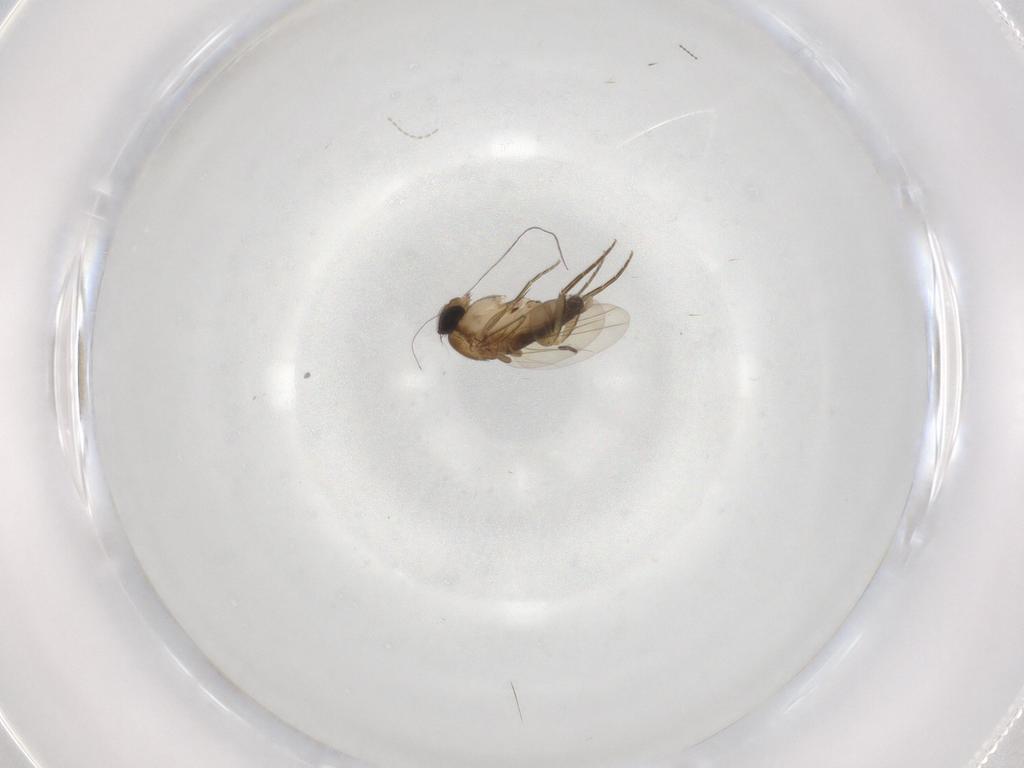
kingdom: Animalia
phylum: Arthropoda
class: Insecta
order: Diptera
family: Phoridae
